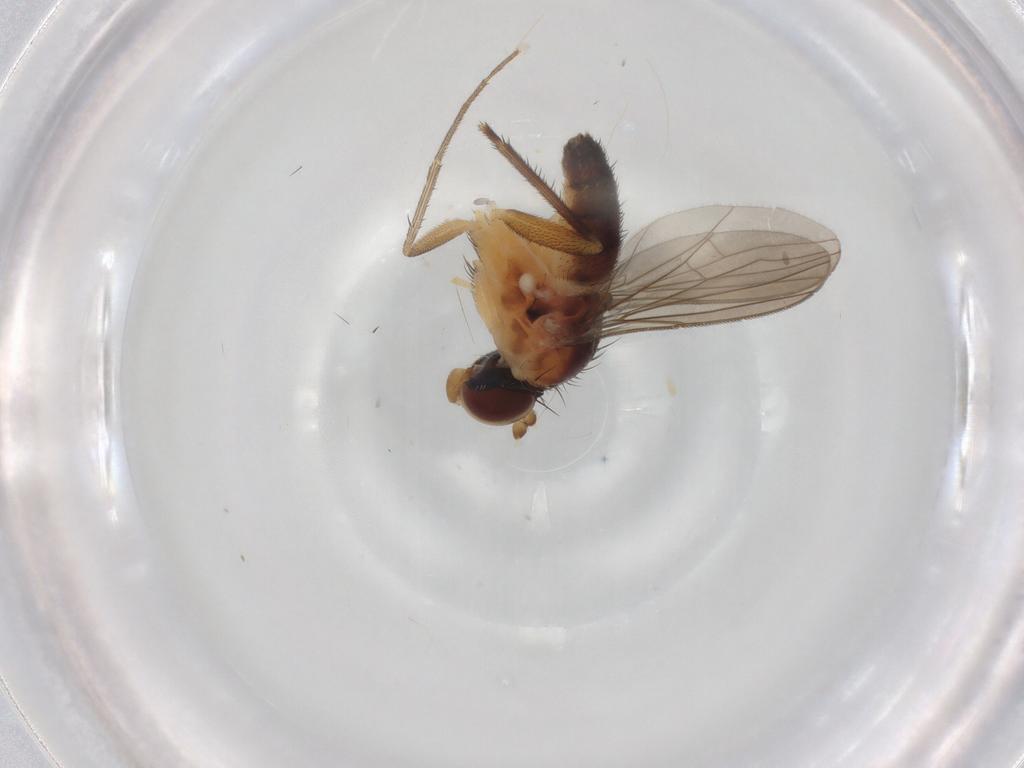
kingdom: Animalia
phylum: Arthropoda
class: Insecta
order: Diptera
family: Dolichopodidae
